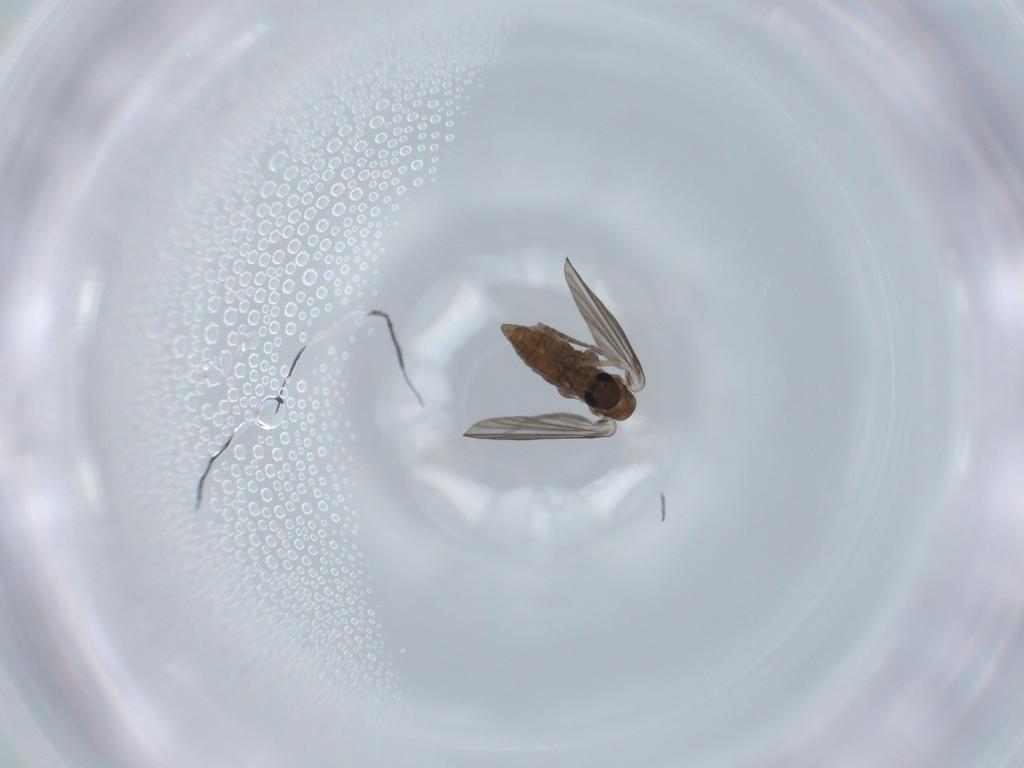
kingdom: Animalia
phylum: Arthropoda
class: Insecta
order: Diptera
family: Psychodidae
